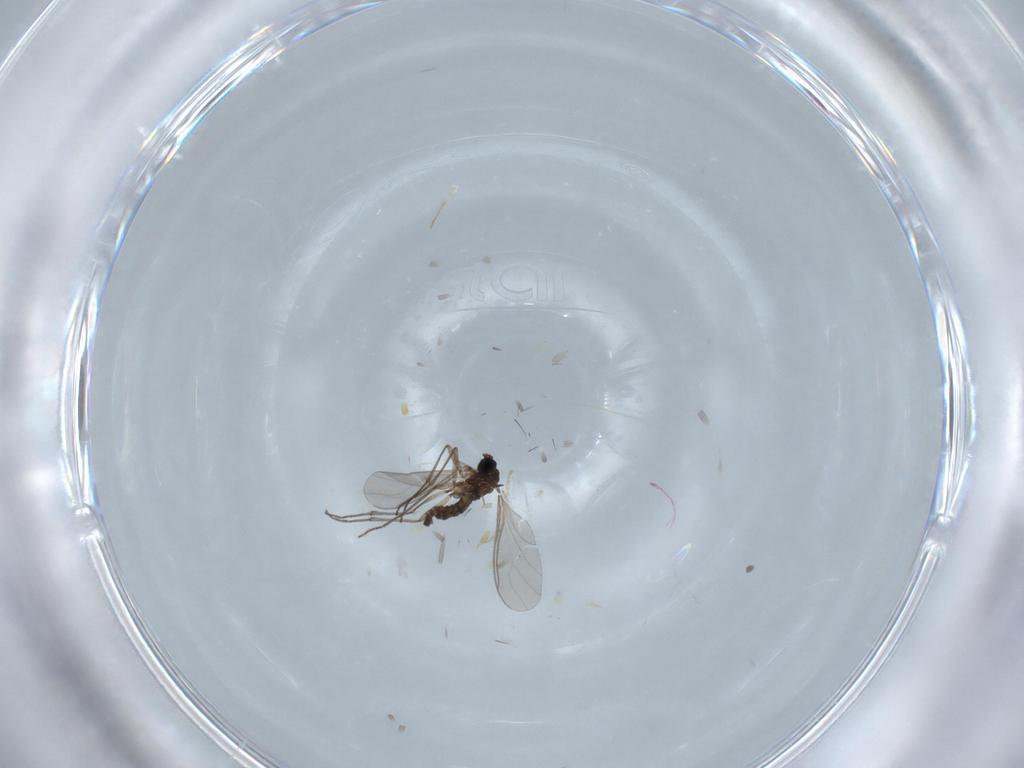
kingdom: Animalia
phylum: Arthropoda
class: Insecta
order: Diptera
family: Sciaridae
